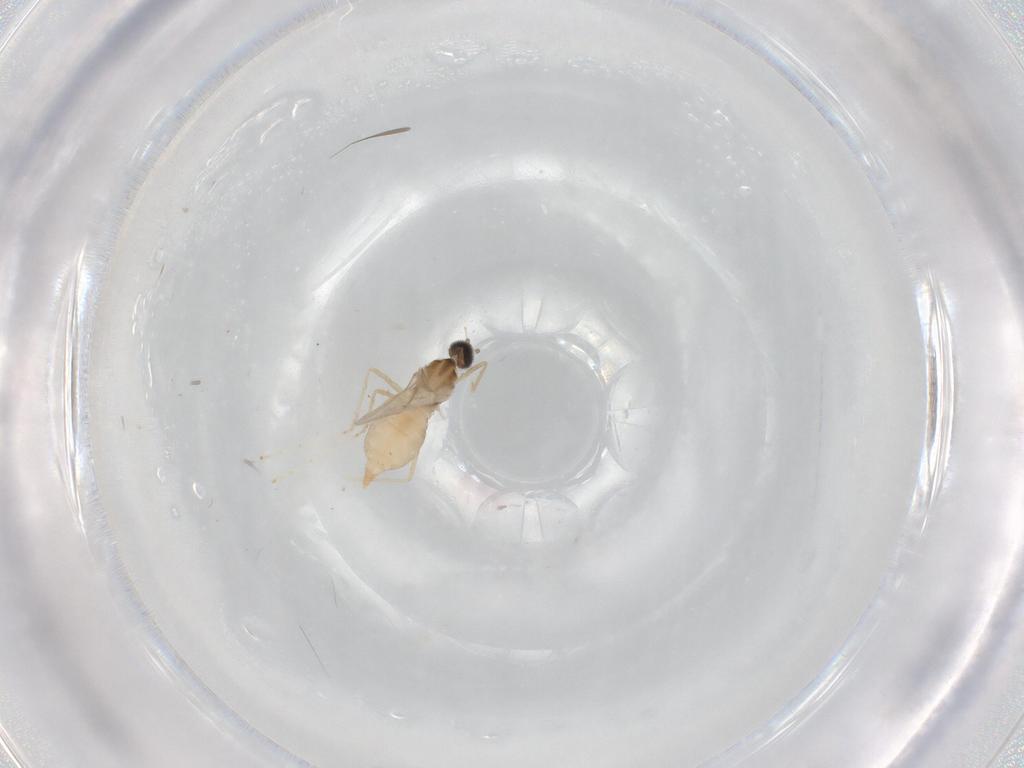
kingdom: Animalia
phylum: Arthropoda
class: Insecta
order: Diptera
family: Cecidomyiidae
